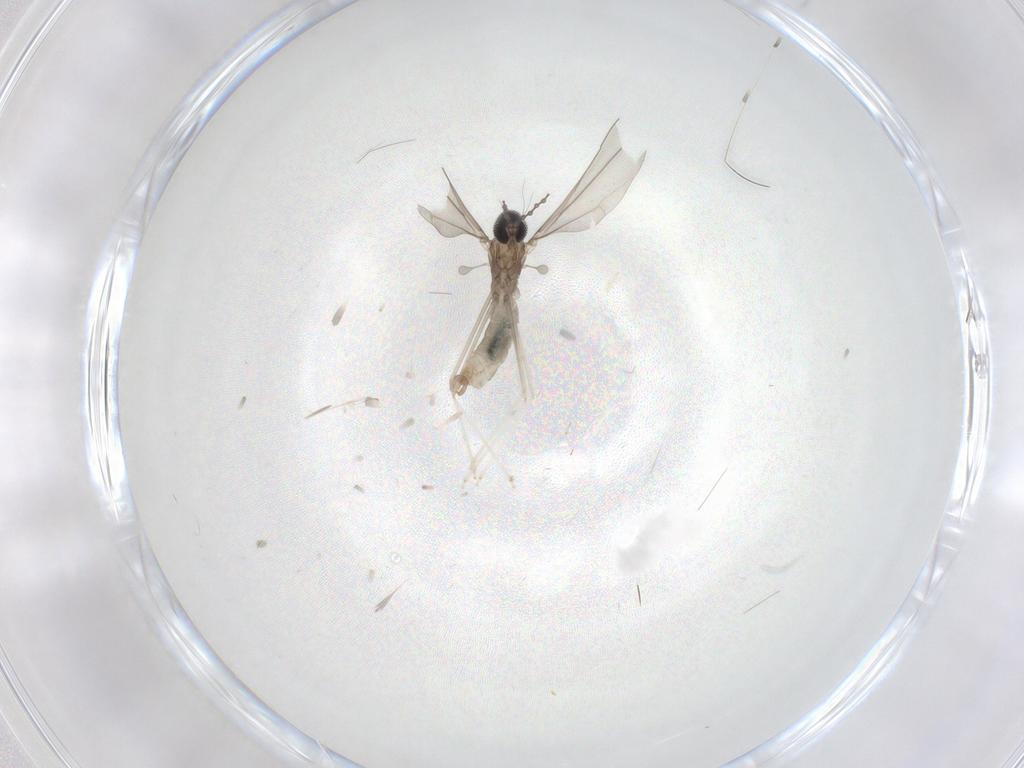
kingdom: Animalia
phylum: Arthropoda
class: Insecta
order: Diptera
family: Cecidomyiidae
